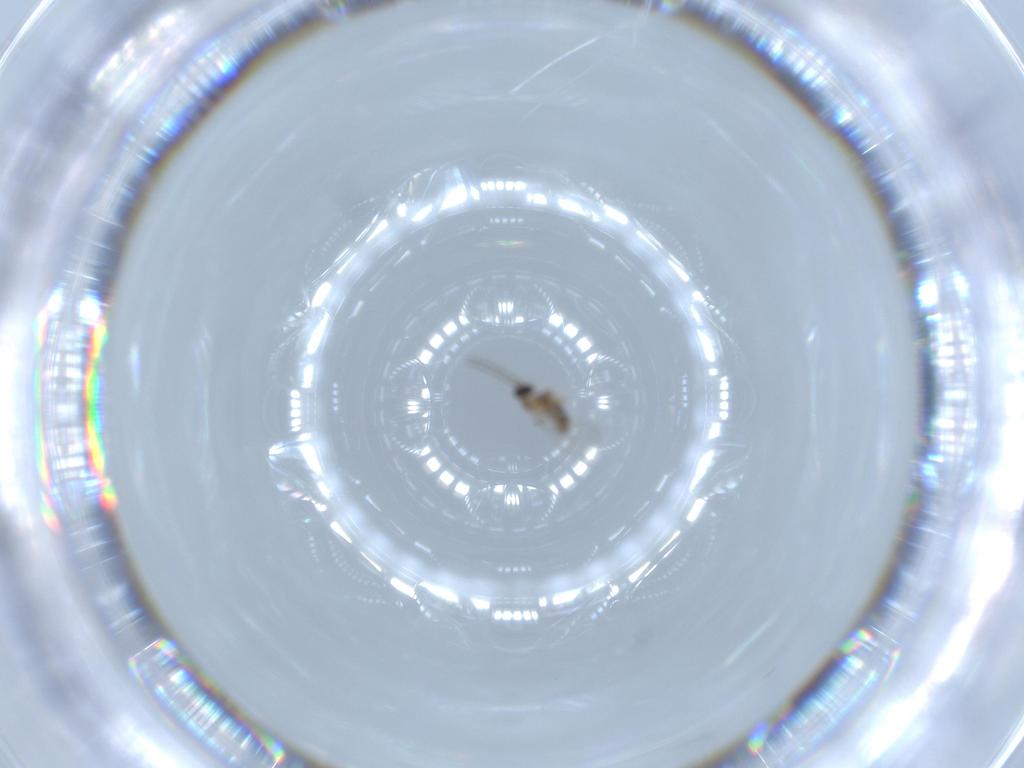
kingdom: Animalia
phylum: Arthropoda
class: Insecta
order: Diptera
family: Cecidomyiidae
